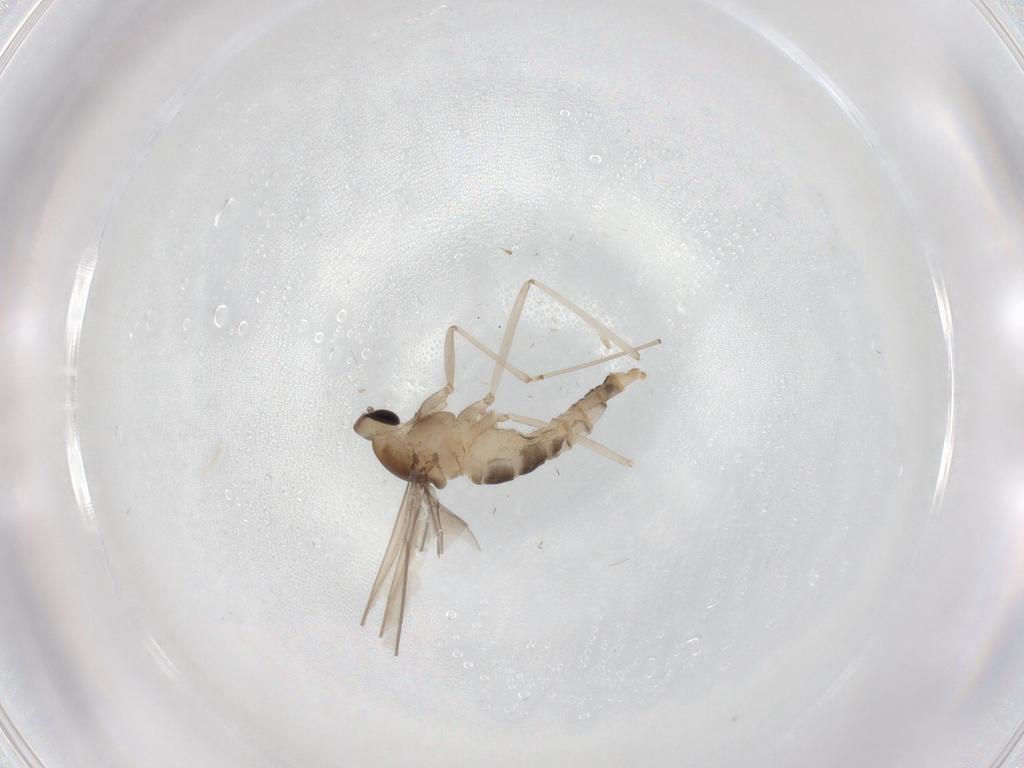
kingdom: Animalia
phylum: Arthropoda
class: Insecta
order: Diptera
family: Cecidomyiidae
